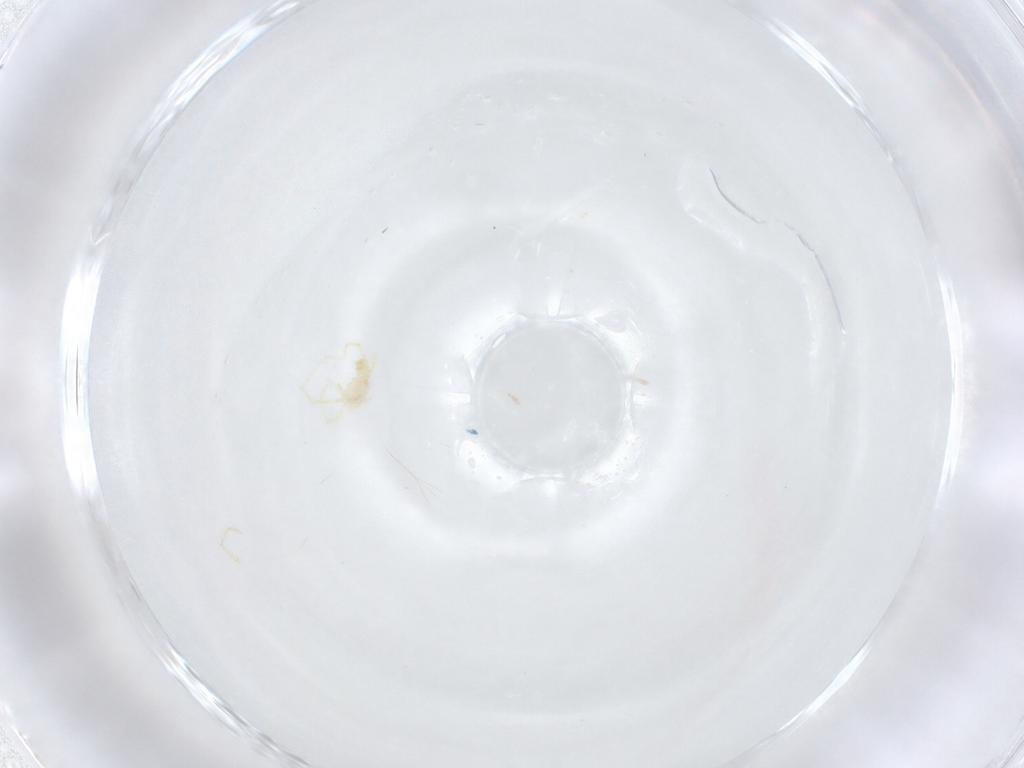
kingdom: Animalia
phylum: Arthropoda
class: Arachnida
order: Trombidiformes
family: Erythraeidae
